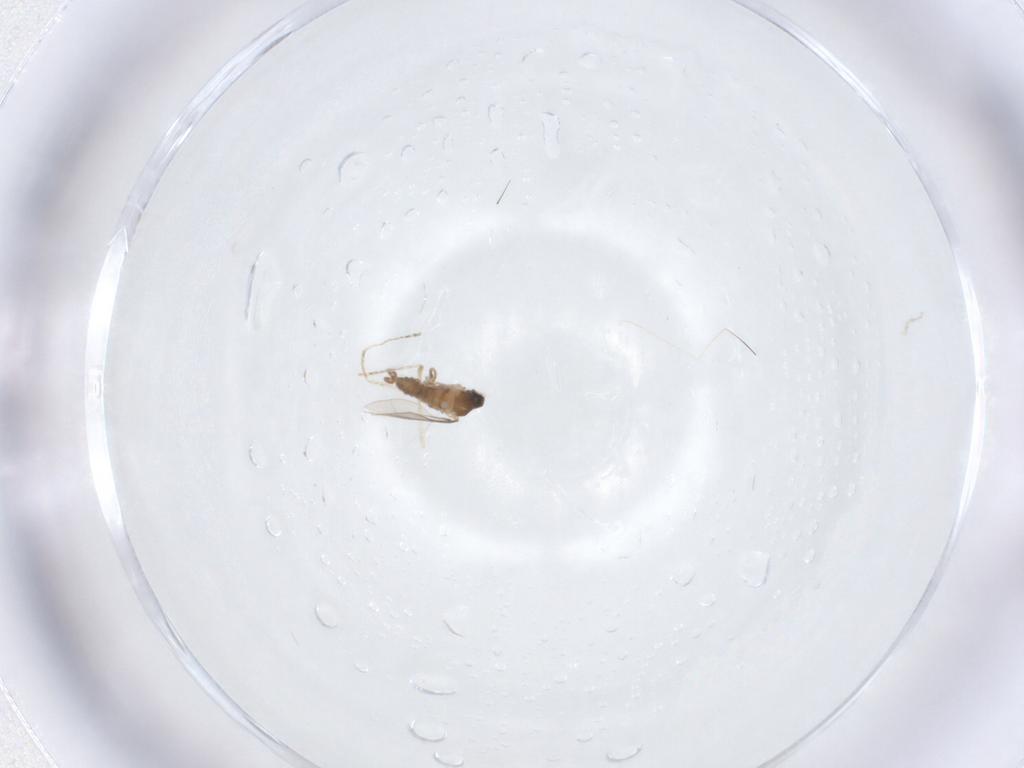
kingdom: Animalia
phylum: Arthropoda
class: Insecta
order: Diptera
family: Cecidomyiidae
